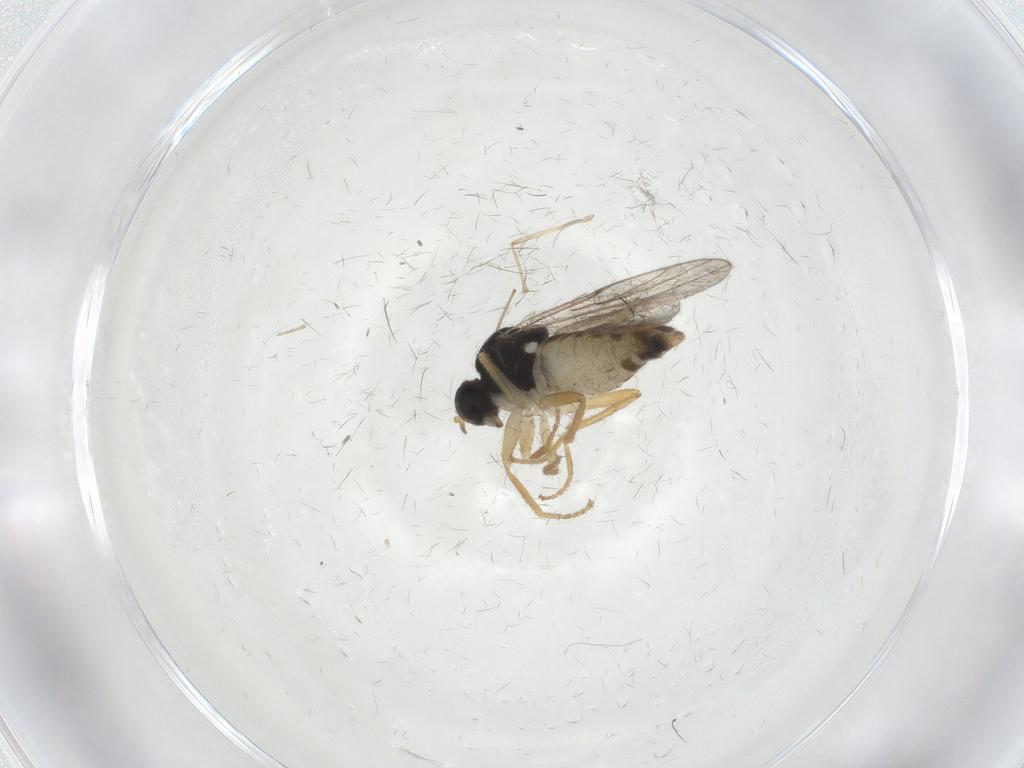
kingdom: Animalia
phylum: Arthropoda
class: Insecta
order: Diptera
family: Hybotidae
